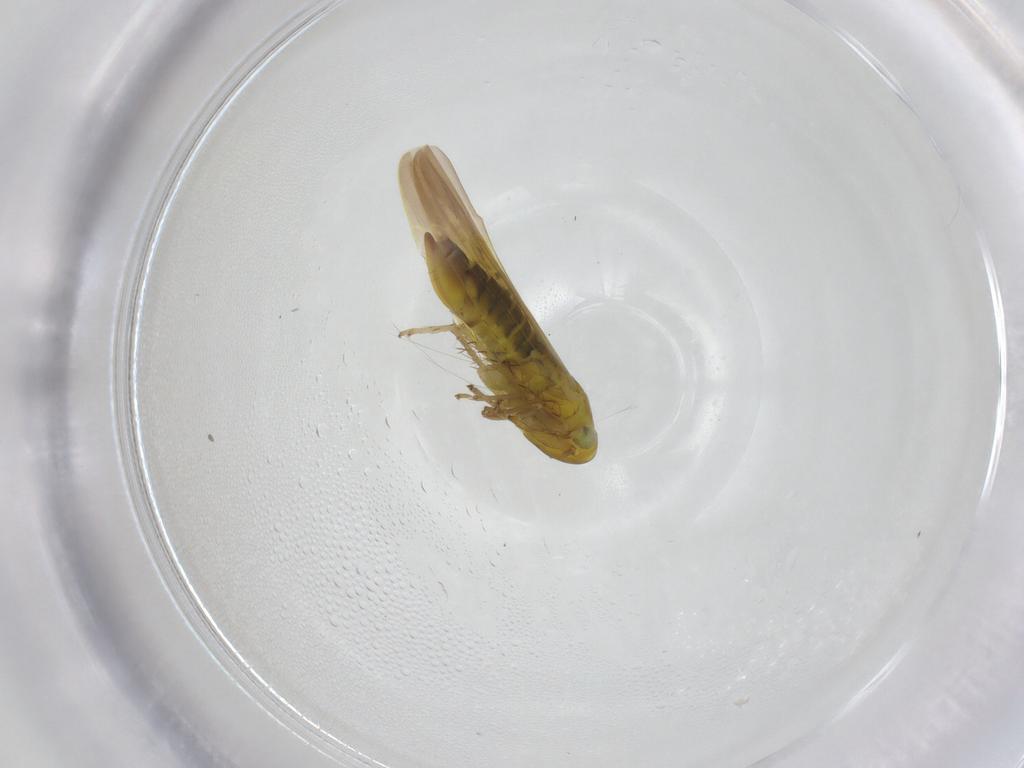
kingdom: Animalia
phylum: Arthropoda
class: Insecta
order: Hemiptera
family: Cicadellidae
